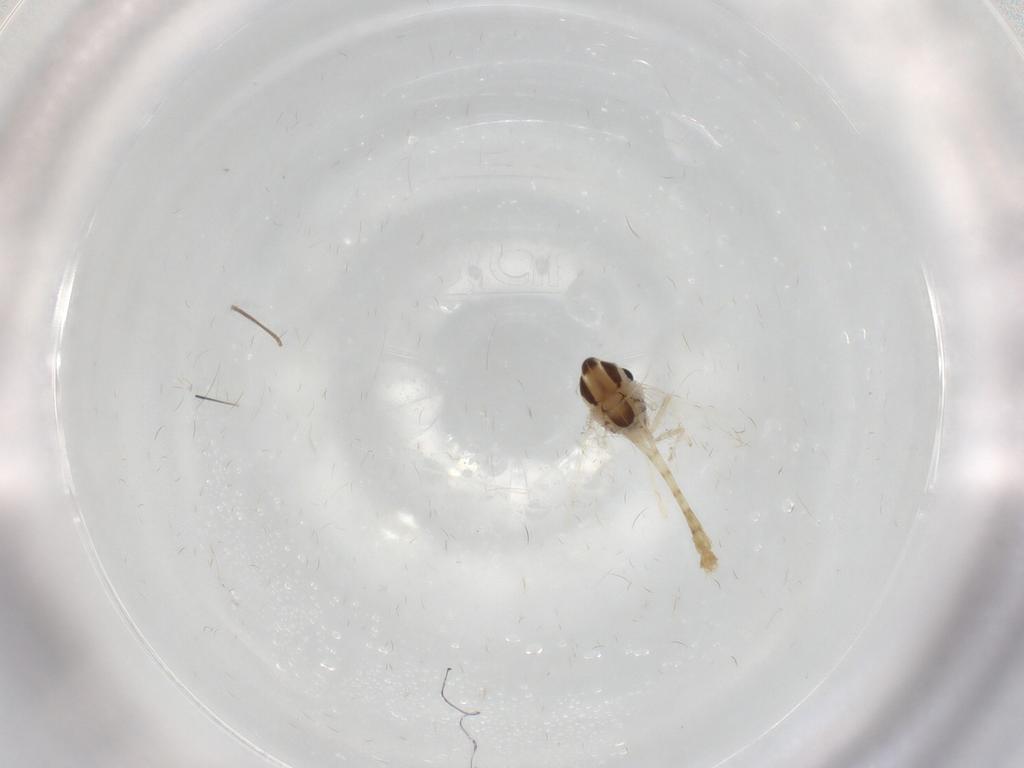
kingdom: Animalia
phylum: Arthropoda
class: Insecta
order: Diptera
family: Chironomidae
